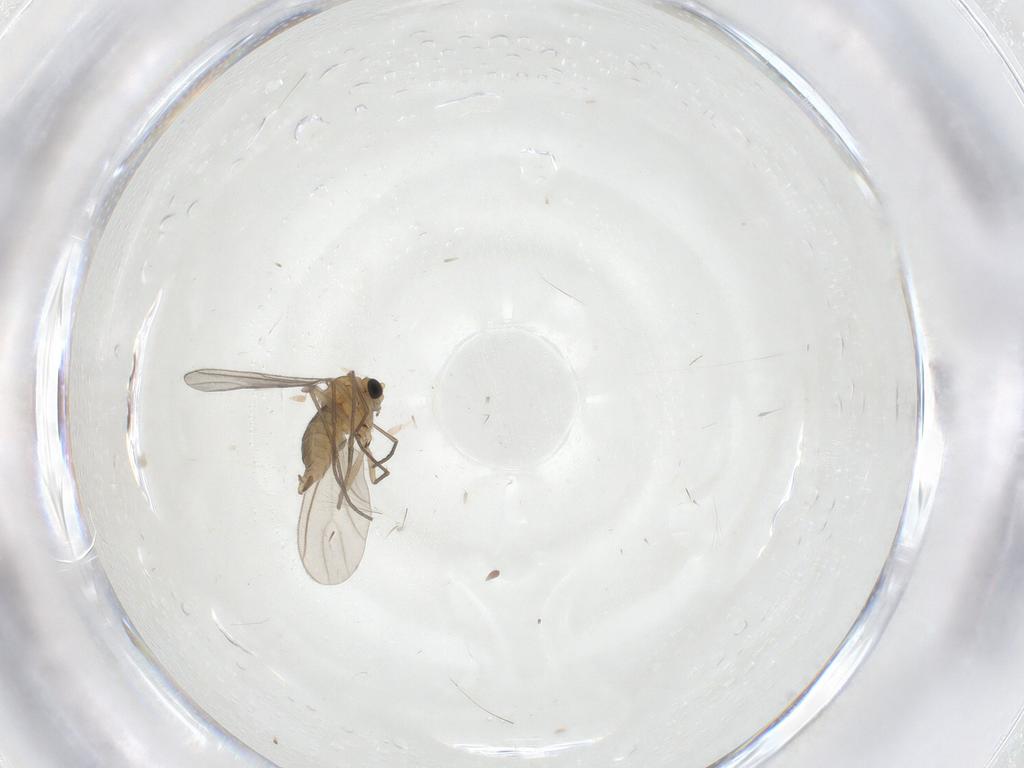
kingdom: Animalia
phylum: Arthropoda
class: Insecta
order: Diptera
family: Sciaridae
